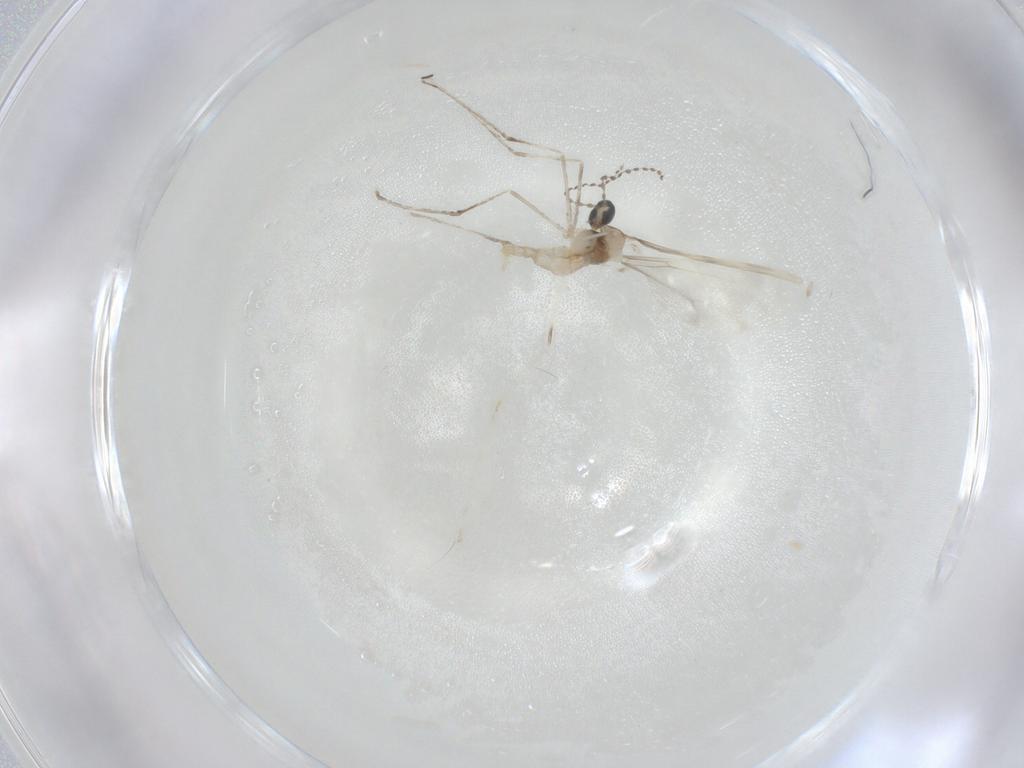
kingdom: Animalia
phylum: Arthropoda
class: Insecta
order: Diptera
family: Cecidomyiidae
